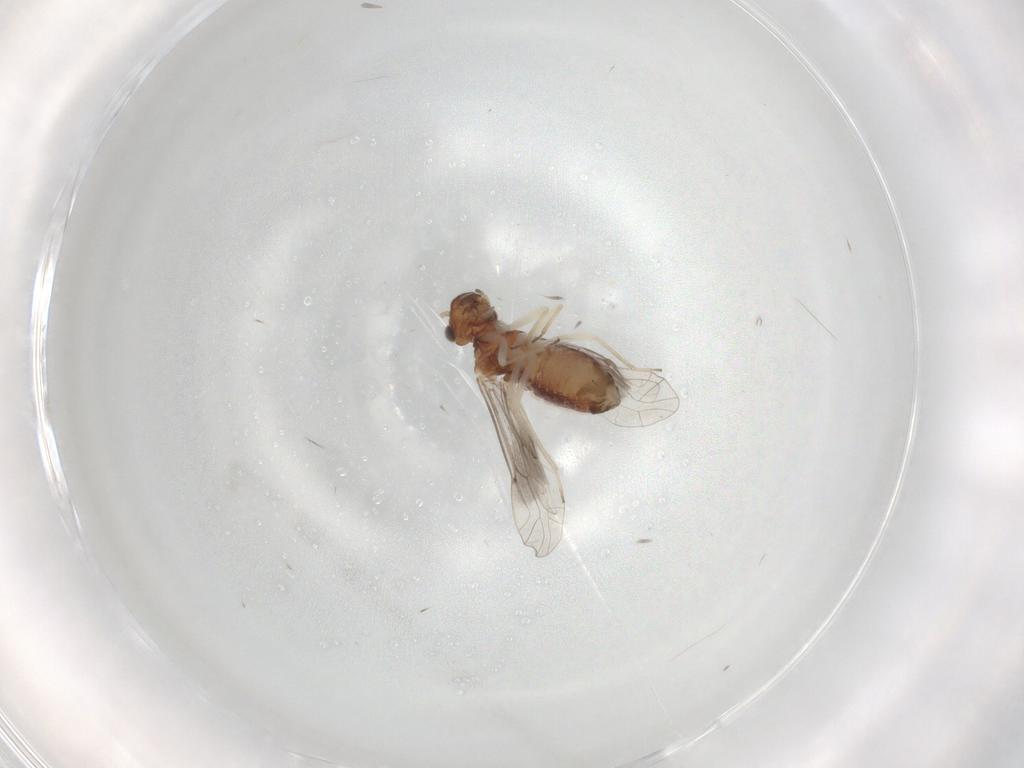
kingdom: Animalia
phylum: Arthropoda
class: Insecta
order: Psocodea
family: Caeciliusidae
